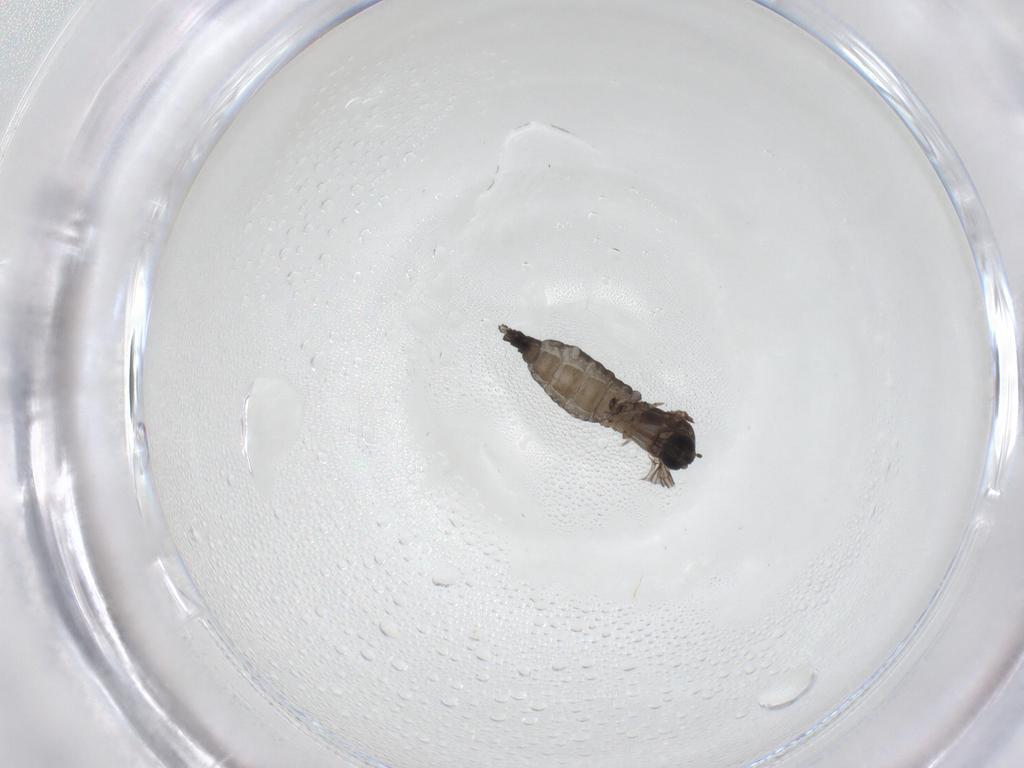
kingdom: Animalia
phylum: Arthropoda
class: Insecta
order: Diptera
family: Sciaridae
